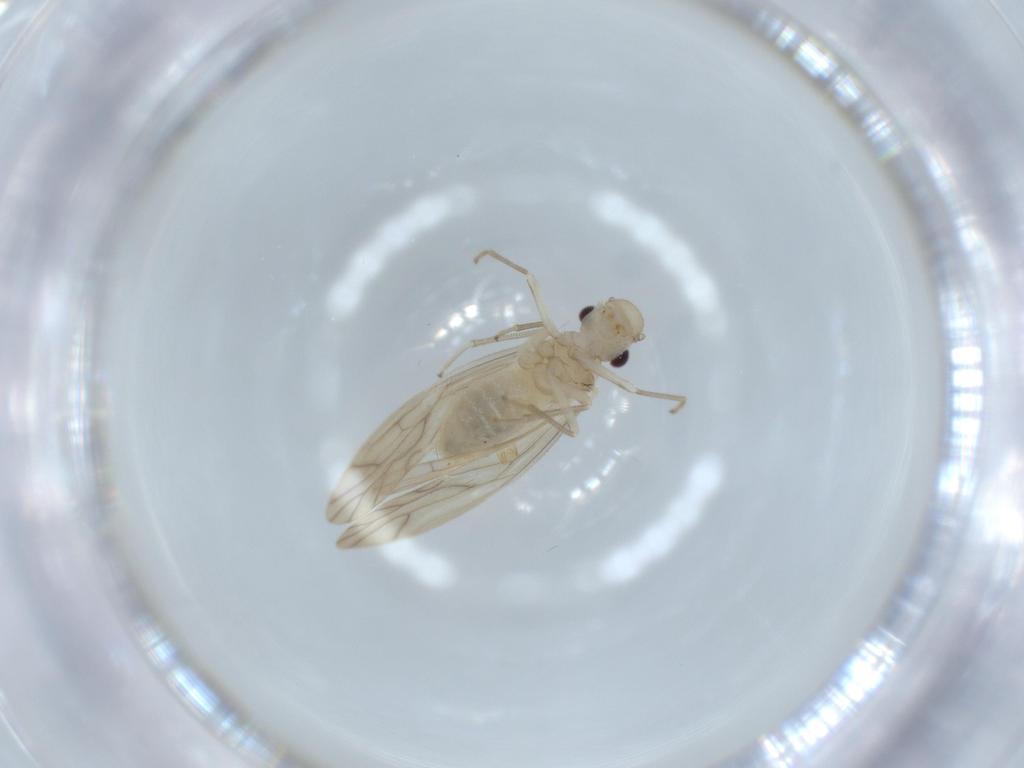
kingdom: Animalia
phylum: Arthropoda
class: Insecta
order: Psocodea
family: Caeciliusidae
